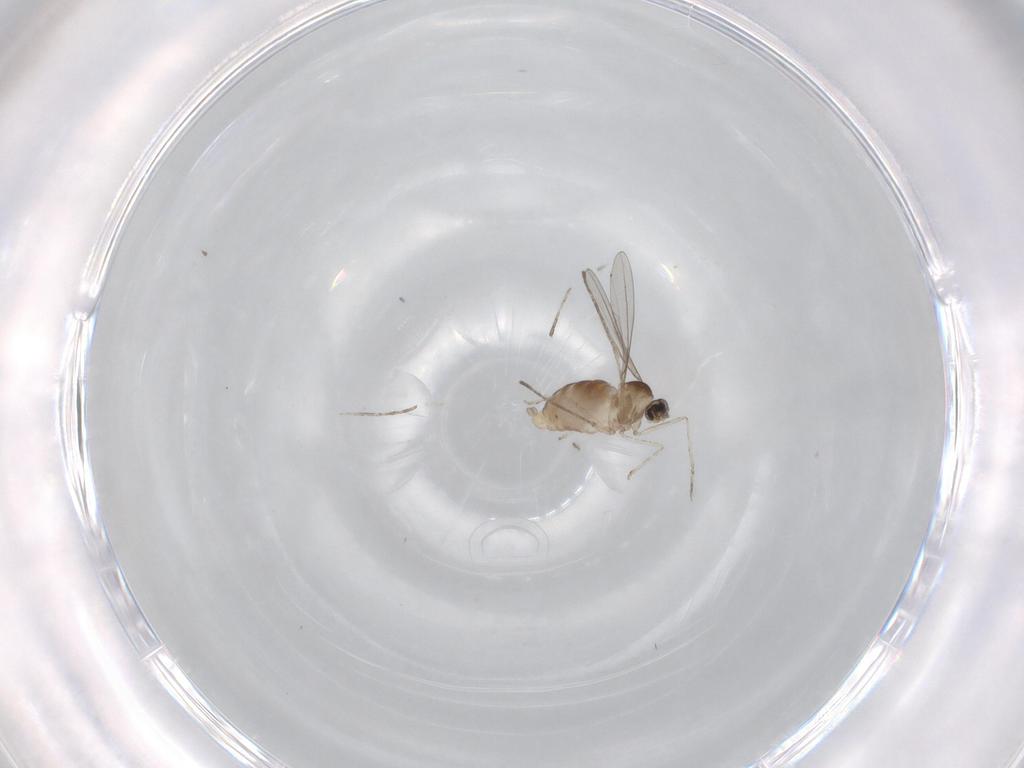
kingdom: Animalia
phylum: Arthropoda
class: Insecta
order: Diptera
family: Cecidomyiidae
